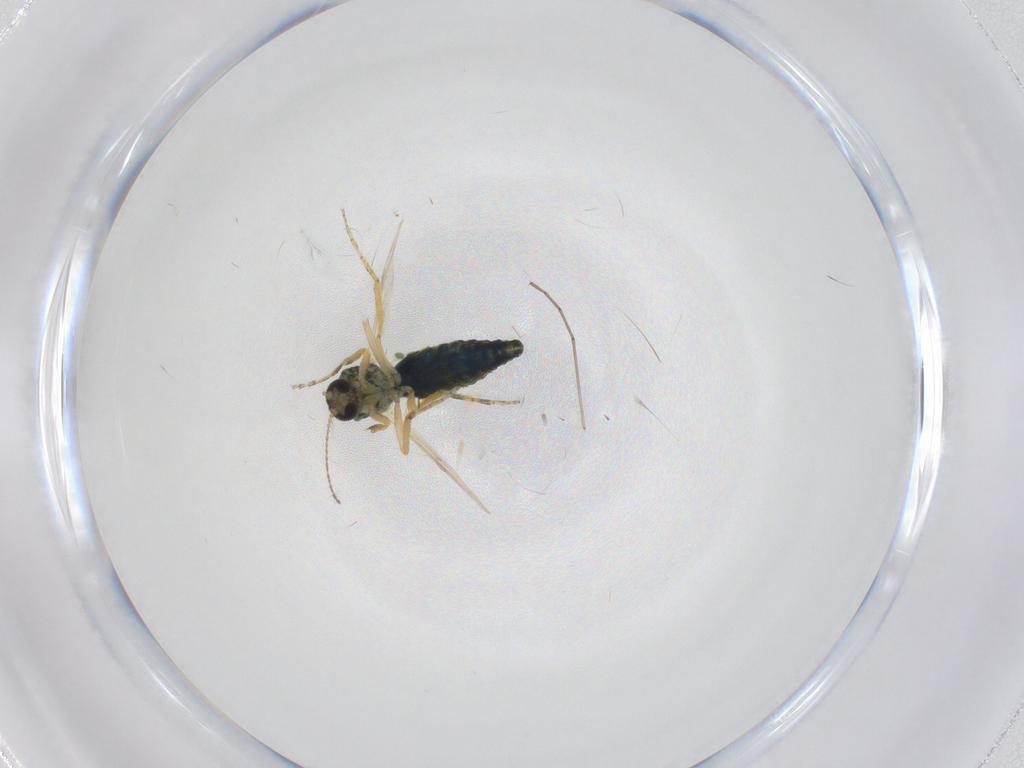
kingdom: Animalia
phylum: Arthropoda
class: Insecta
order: Diptera
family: Ceratopogonidae
